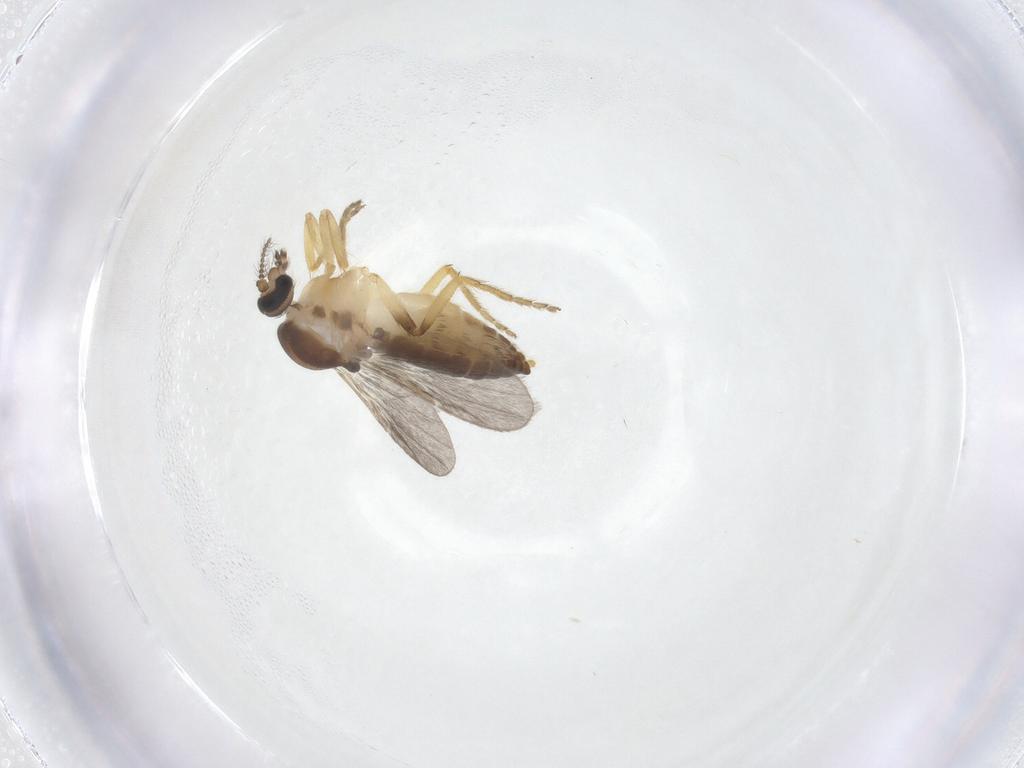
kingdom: Animalia
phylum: Arthropoda
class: Insecta
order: Diptera
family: Ceratopogonidae
